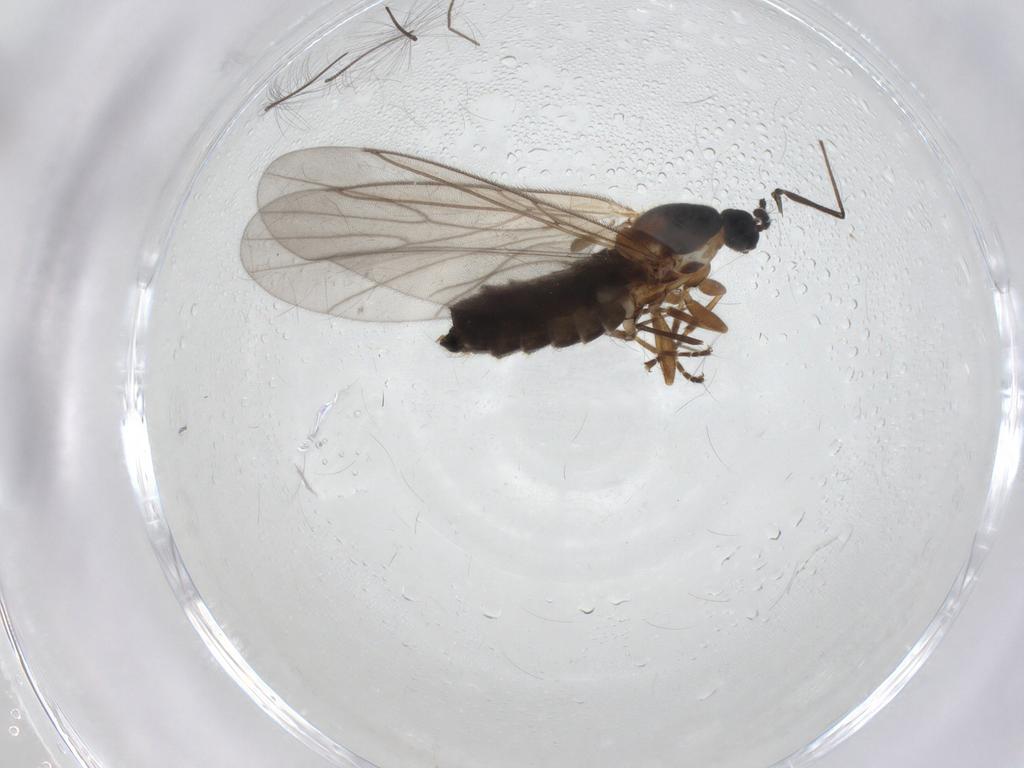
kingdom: Animalia
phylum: Arthropoda
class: Insecta
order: Diptera
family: Scatopsidae
